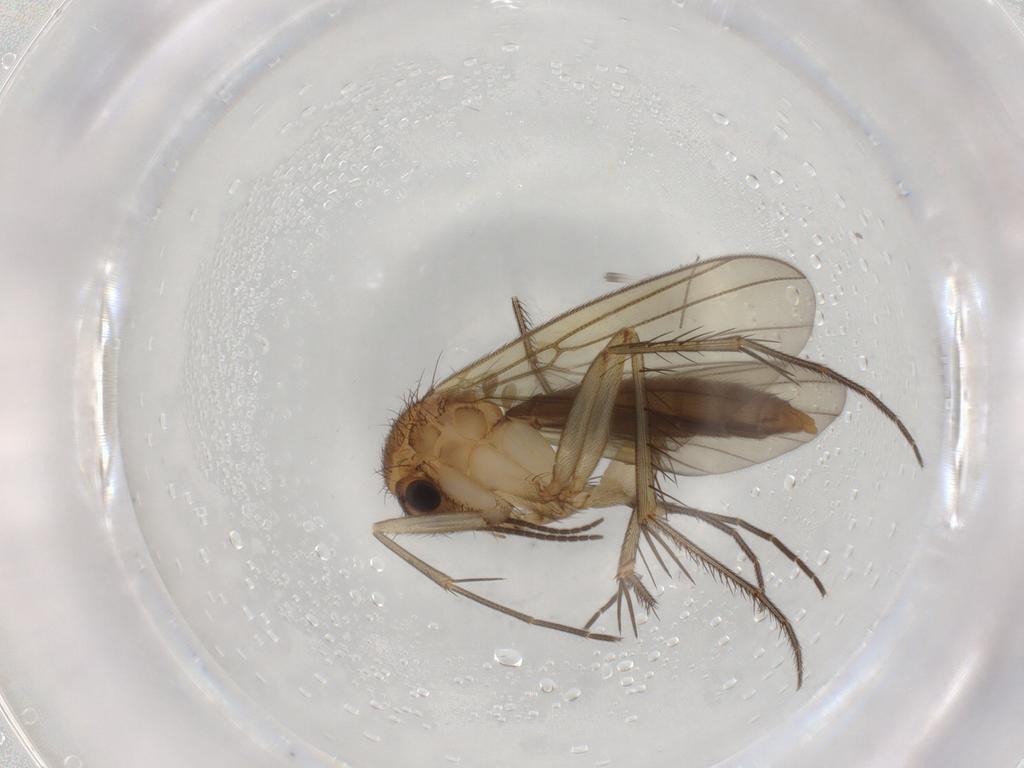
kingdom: Animalia
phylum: Arthropoda
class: Insecta
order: Diptera
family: Chironomidae
